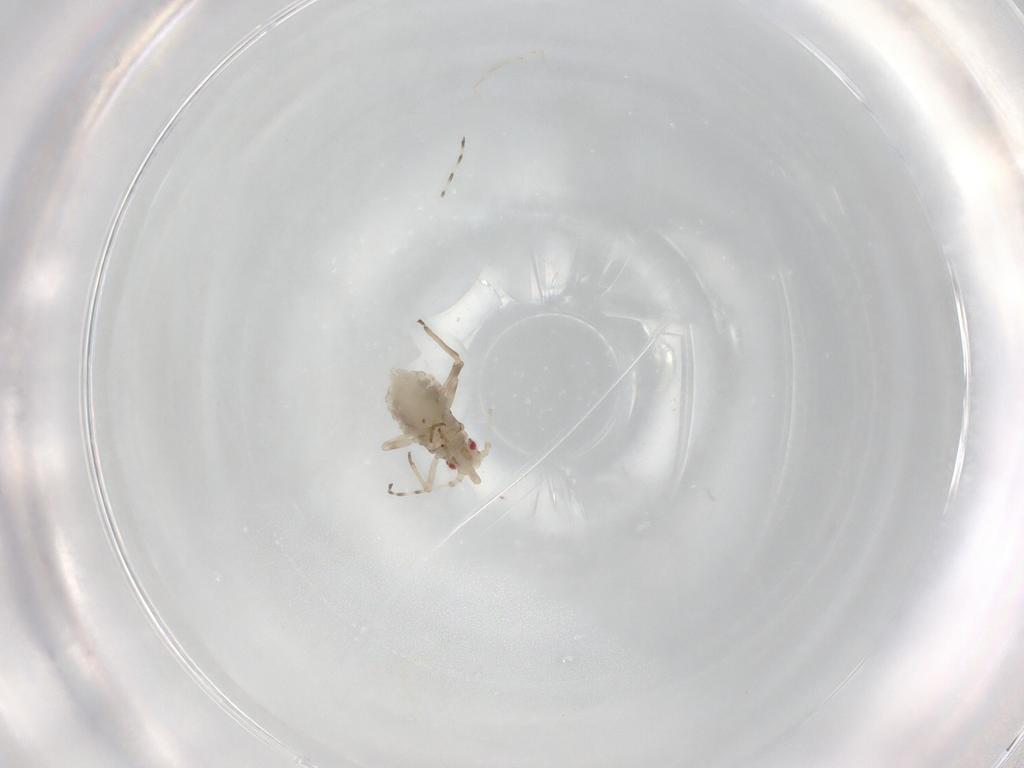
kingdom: Animalia
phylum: Arthropoda
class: Insecta
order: Hemiptera
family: Aphididae
